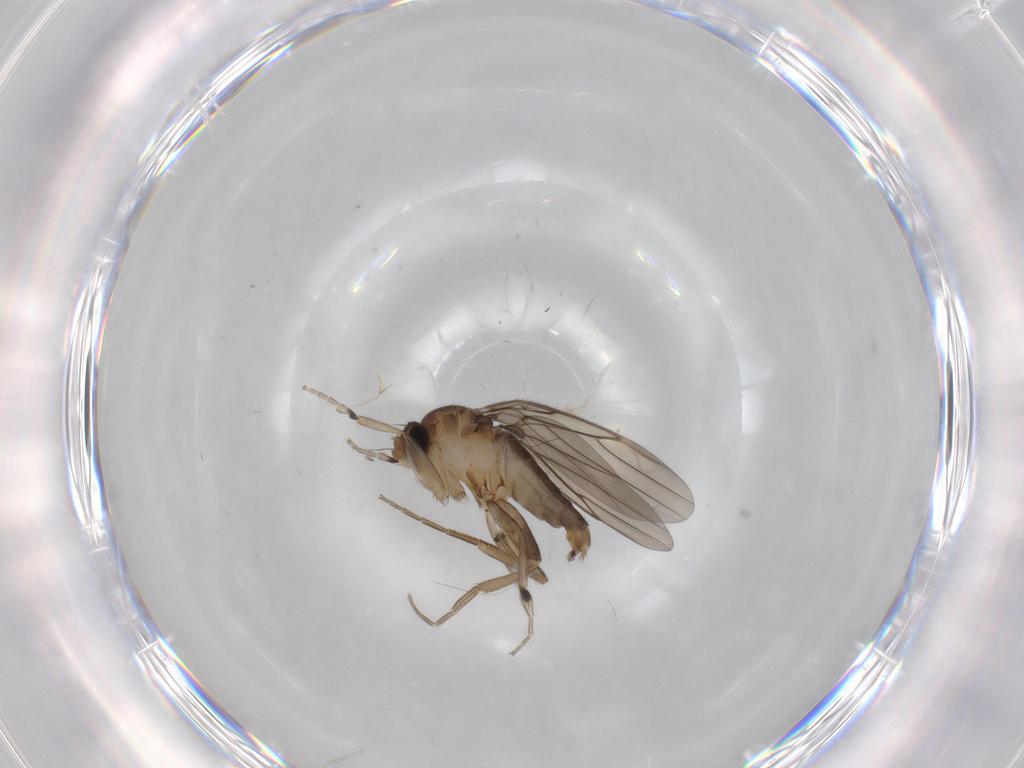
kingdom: Animalia
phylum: Arthropoda
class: Insecta
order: Diptera
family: Phoridae
